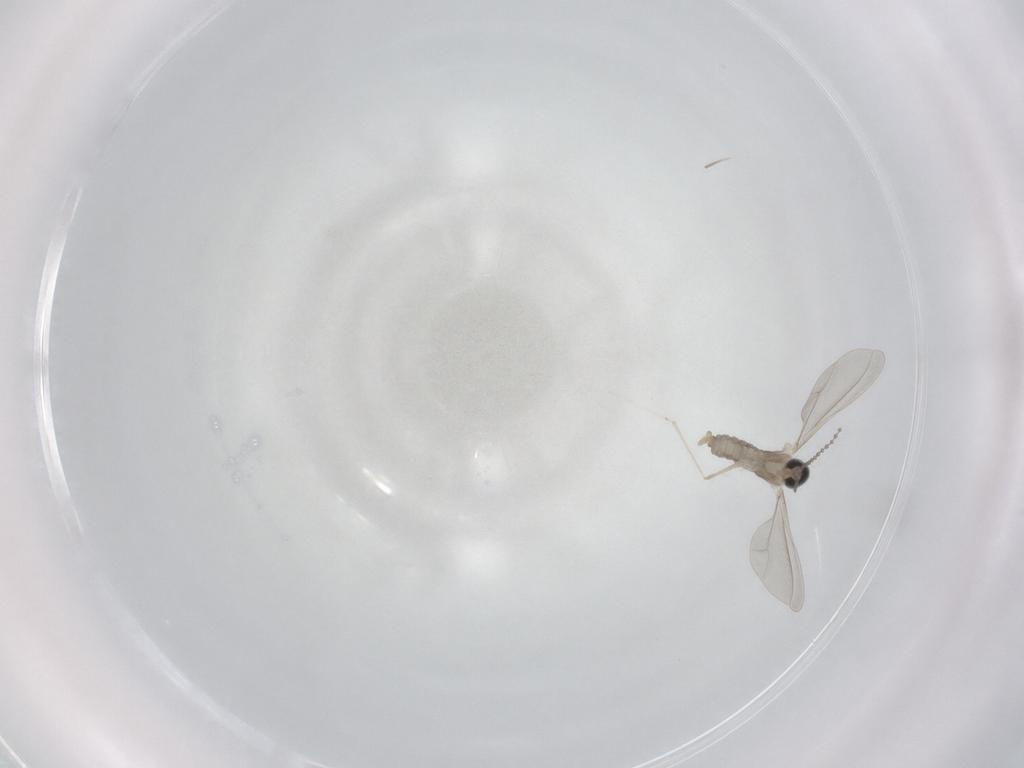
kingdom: Animalia
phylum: Arthropoda
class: Insecta
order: Diptera
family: Cecidomyiidae
